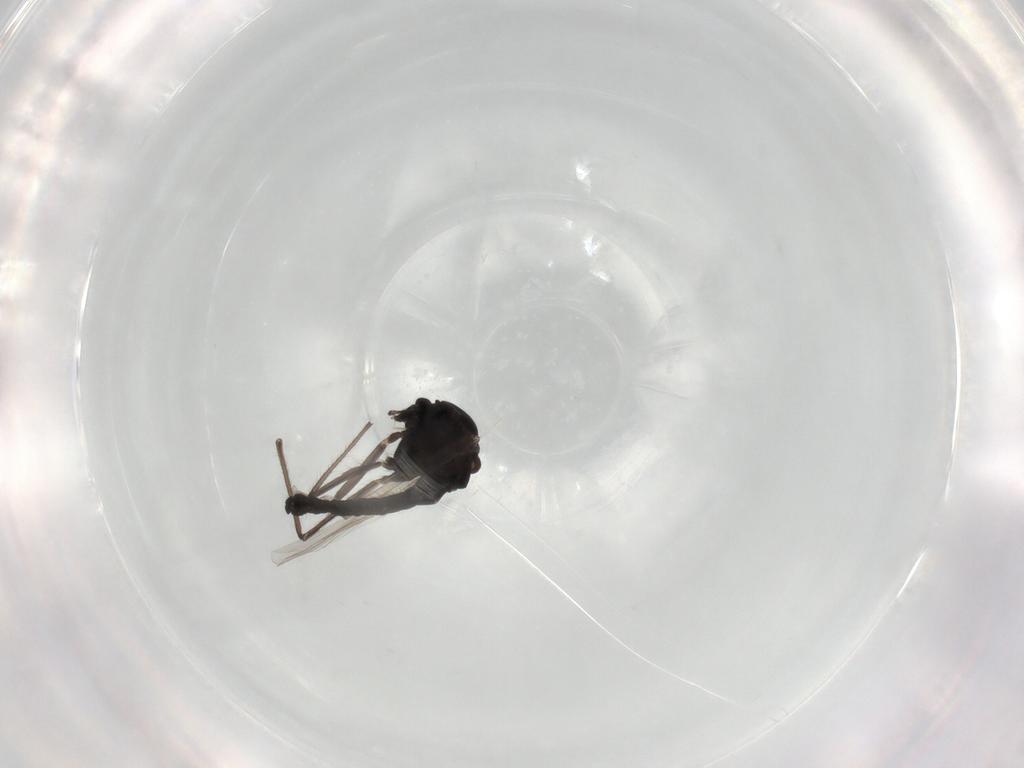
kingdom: Animalia
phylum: Arthropoda
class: Insecta
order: Diptera
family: Chironomidae
